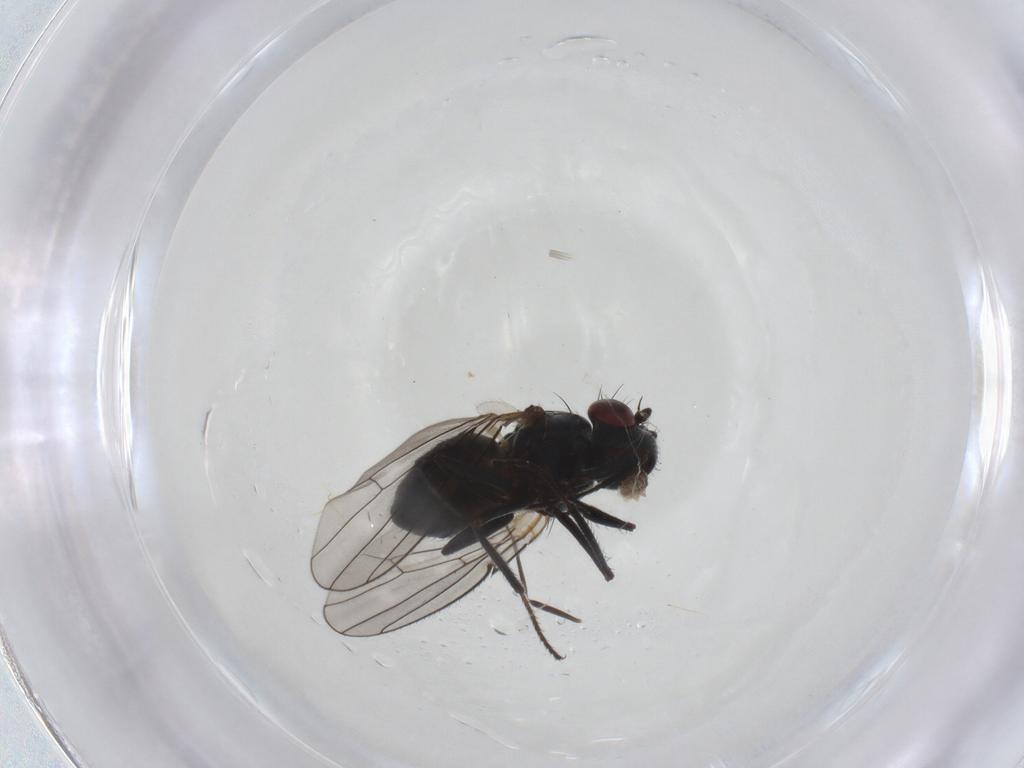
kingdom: Animalia
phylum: Arthropoda
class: Insecta
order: Diptera
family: Ephydridae
